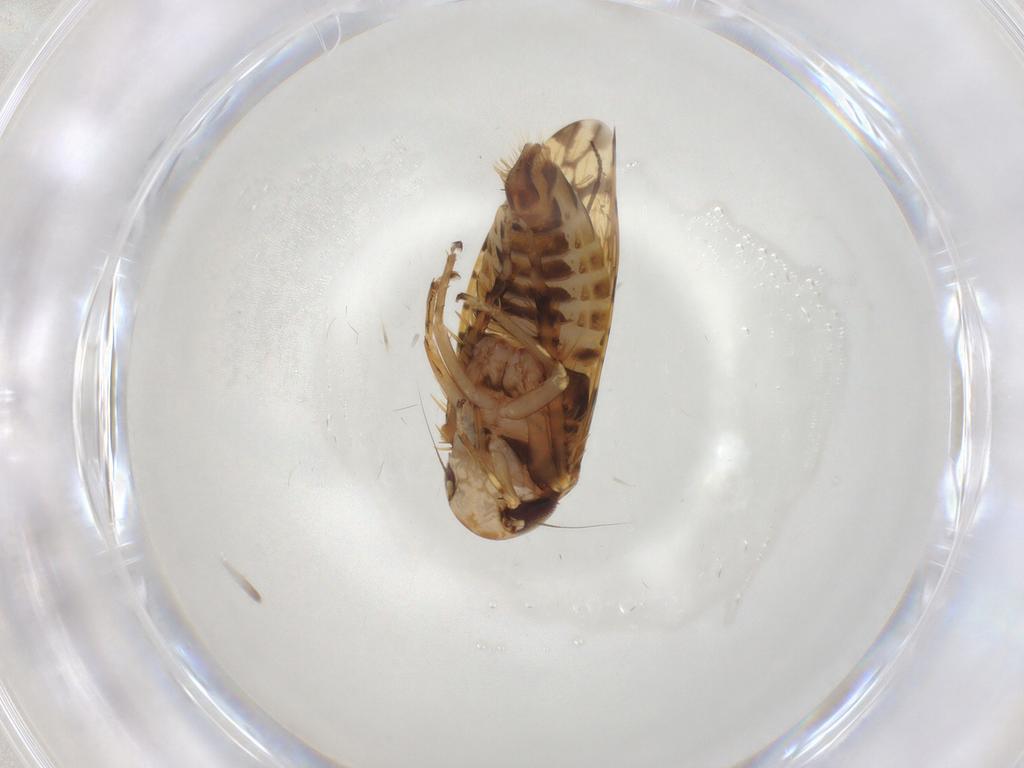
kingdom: Animalia
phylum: Arthropoda
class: Insecta
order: Hemiptera
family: Cicadellidae
